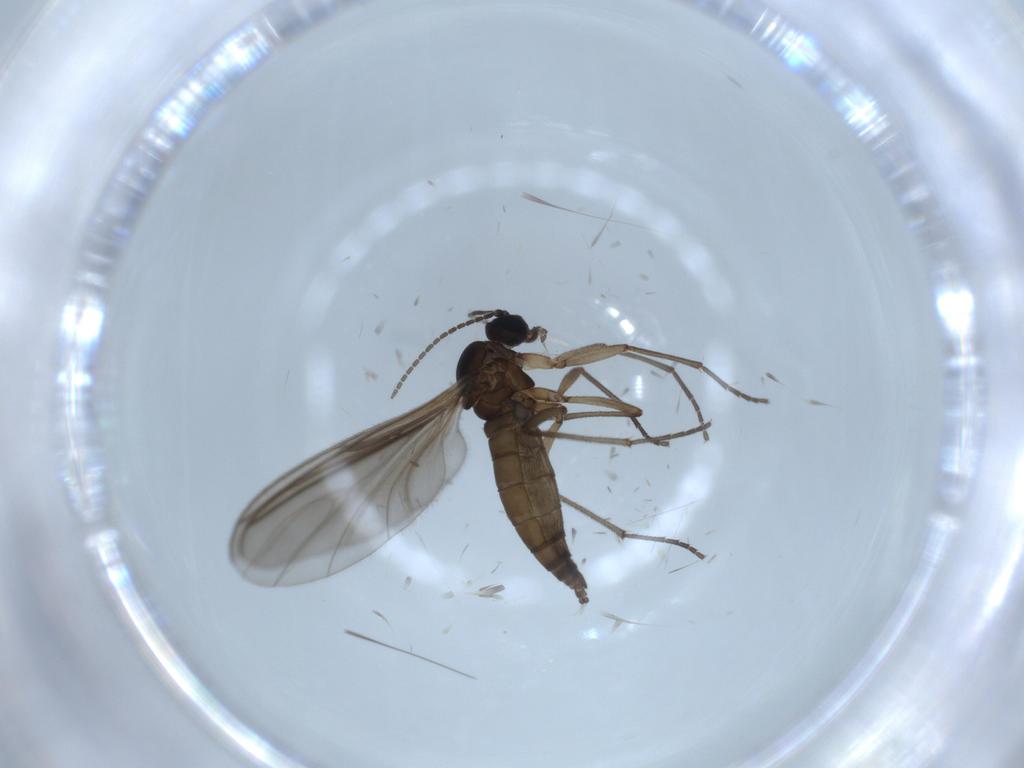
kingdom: Animalia
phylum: Arthropoda
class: Insecta
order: Diptera
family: Sciaridae
